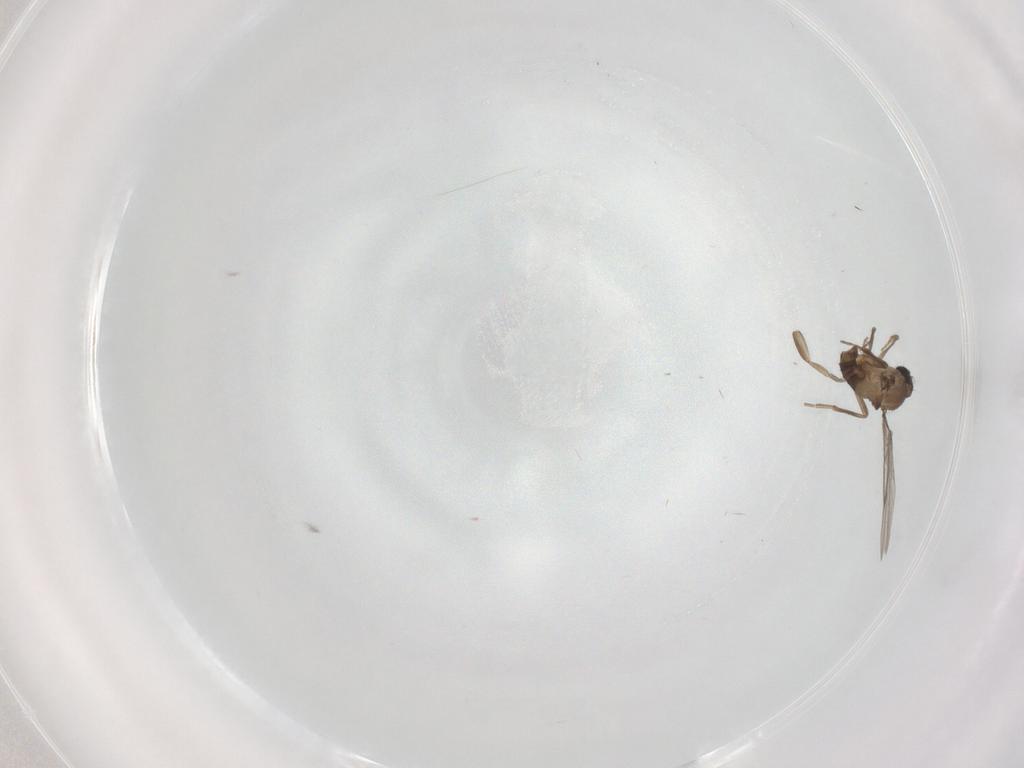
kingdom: Animalia
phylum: Arthropoda
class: Insecta
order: Diptera
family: Phoridae
